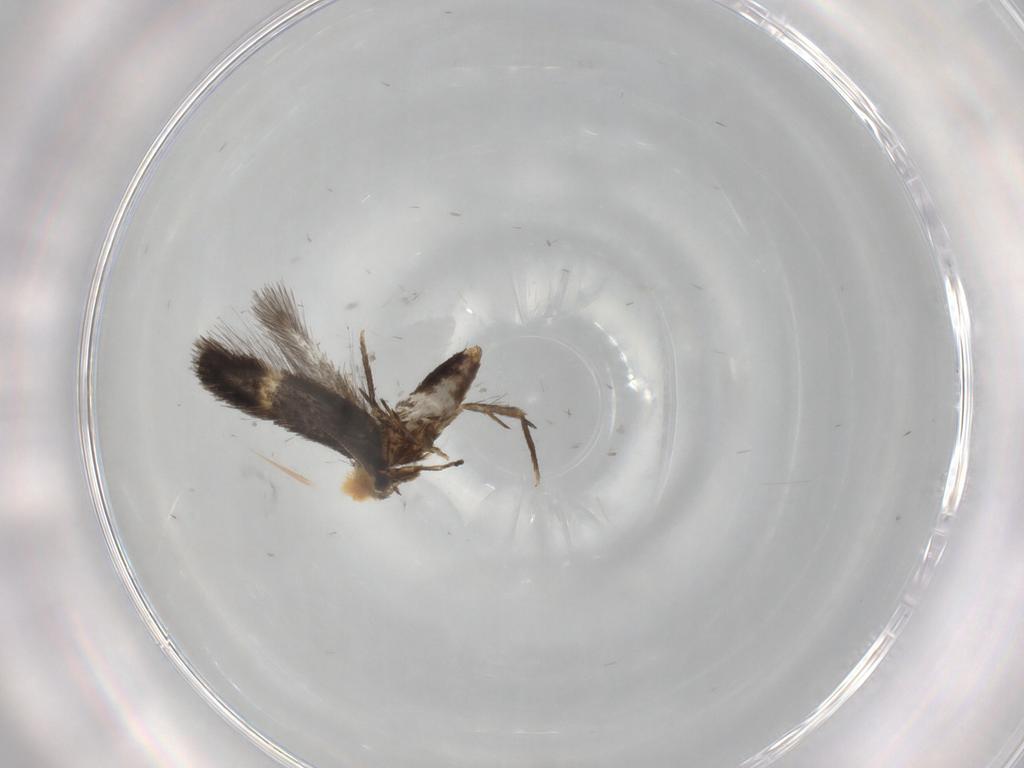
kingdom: Animalia
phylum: Arthropoda
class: Insecta
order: Lepidoptera
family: Nepticulidae
